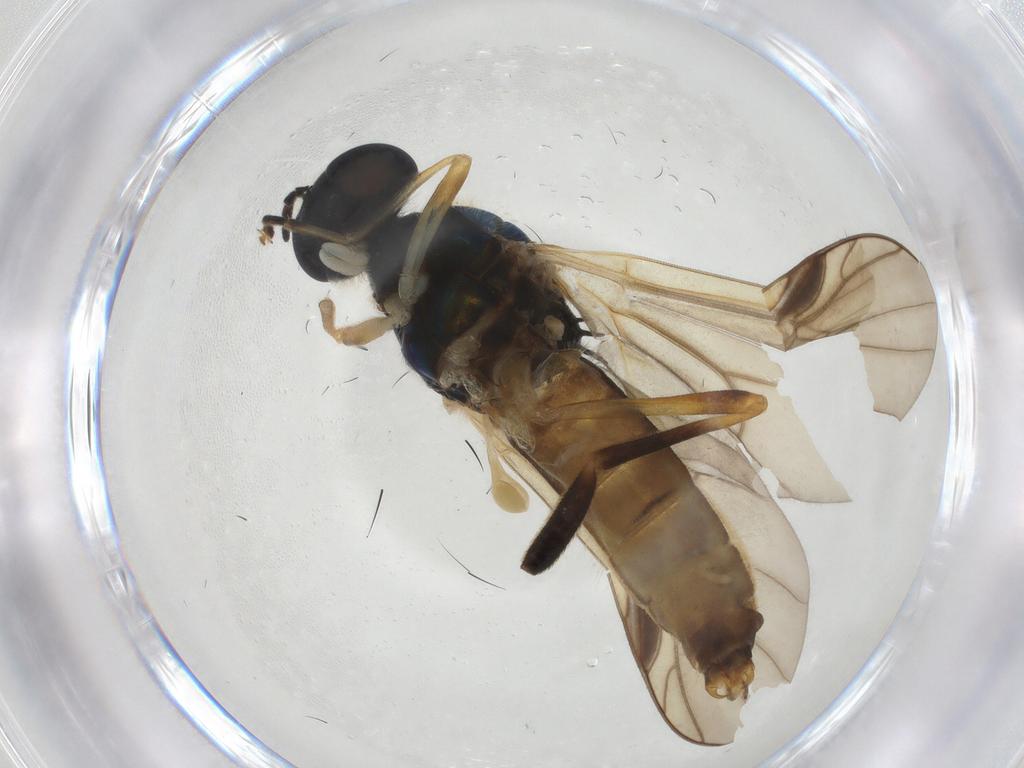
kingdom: Animalia
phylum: Arthropoda
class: Insecta
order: Diptera
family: Stratiomyidae
